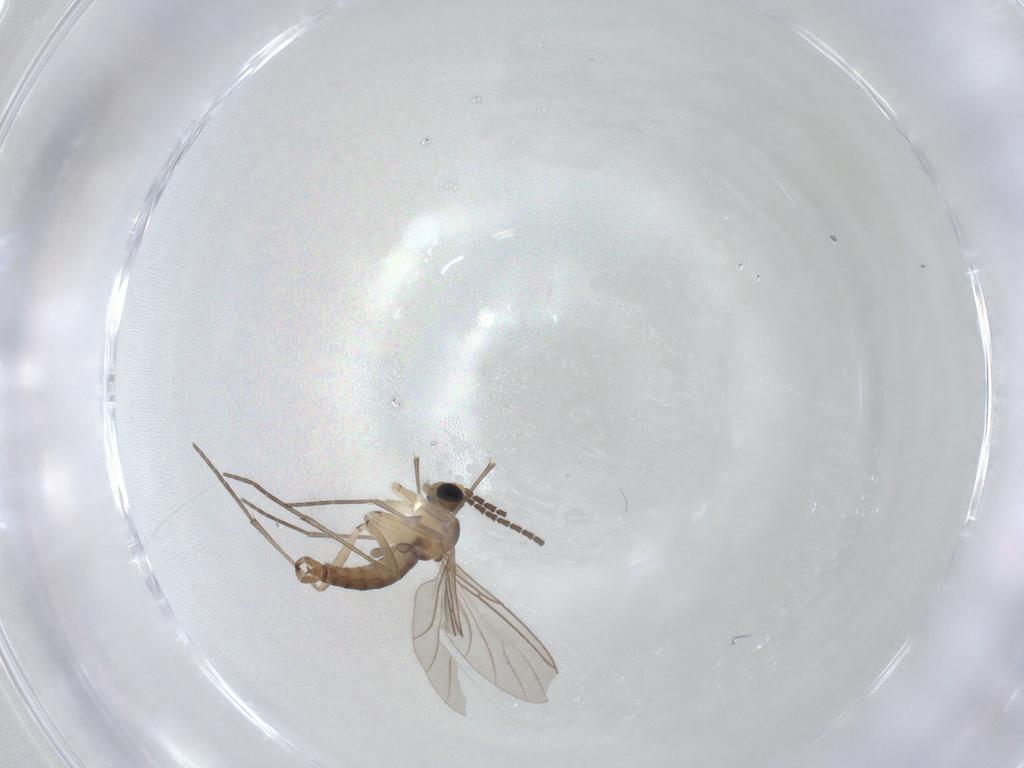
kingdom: Animalia
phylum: Arthropoda
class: Insecta
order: Diptera
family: Sciaridae
